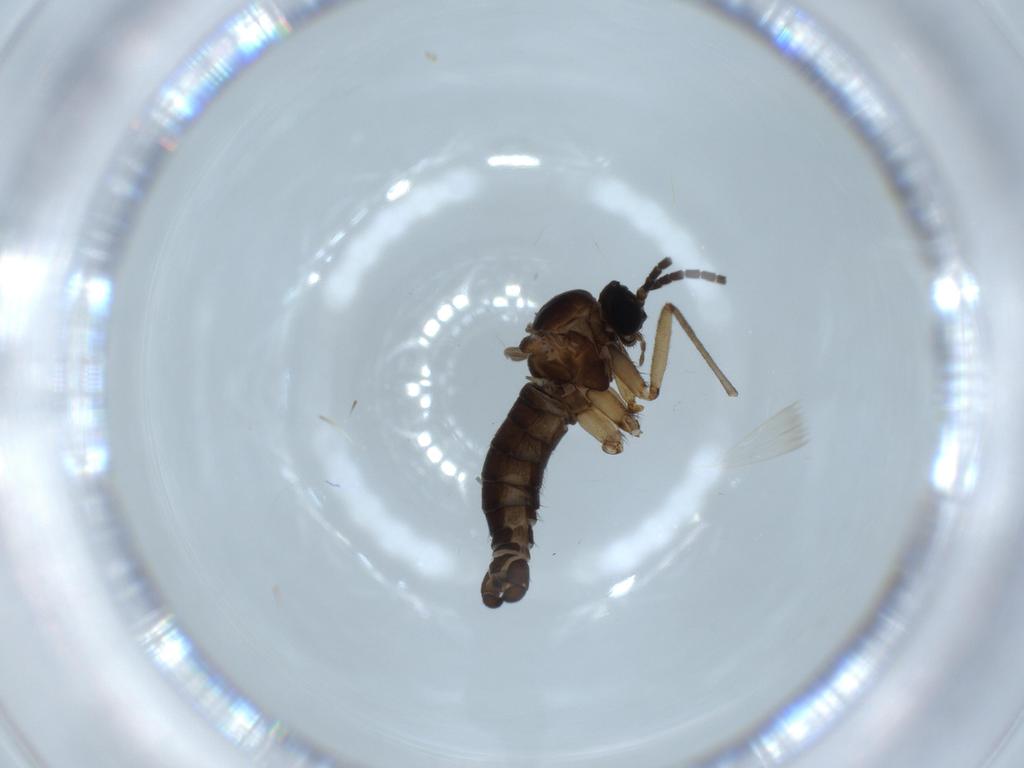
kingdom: Animalia
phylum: Arthropoda
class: Insecta
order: Diptera
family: Sciaridae
